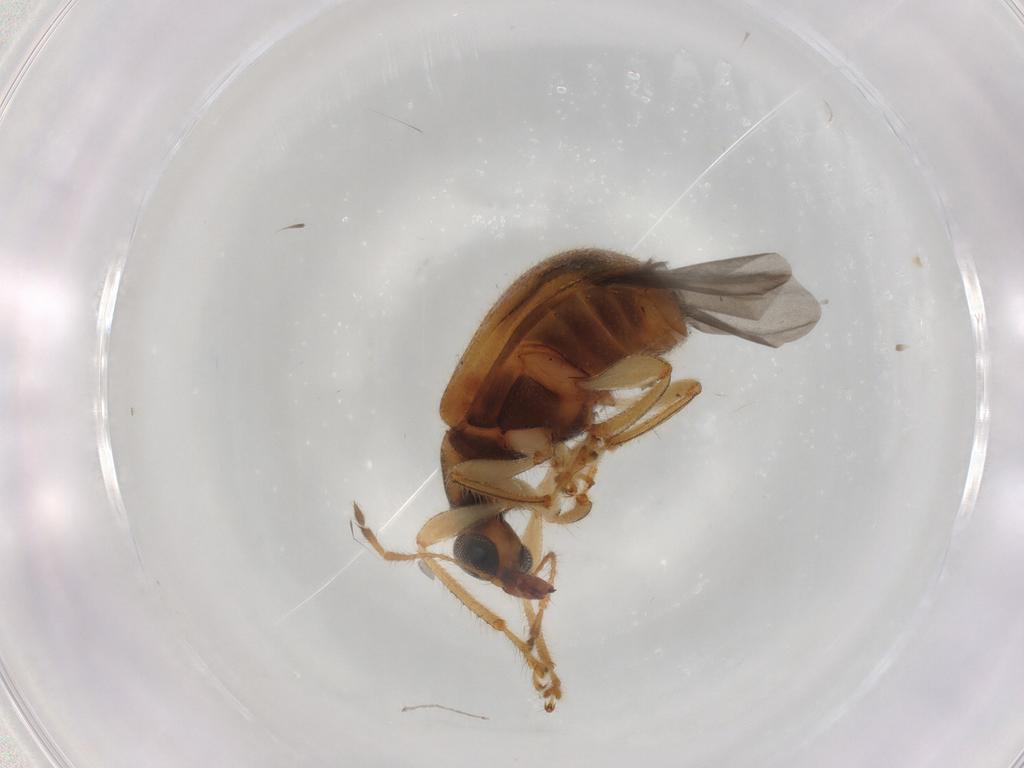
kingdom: Animalia
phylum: Arthropoda
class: Insecta
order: Coleoptera
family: Attelabidae
